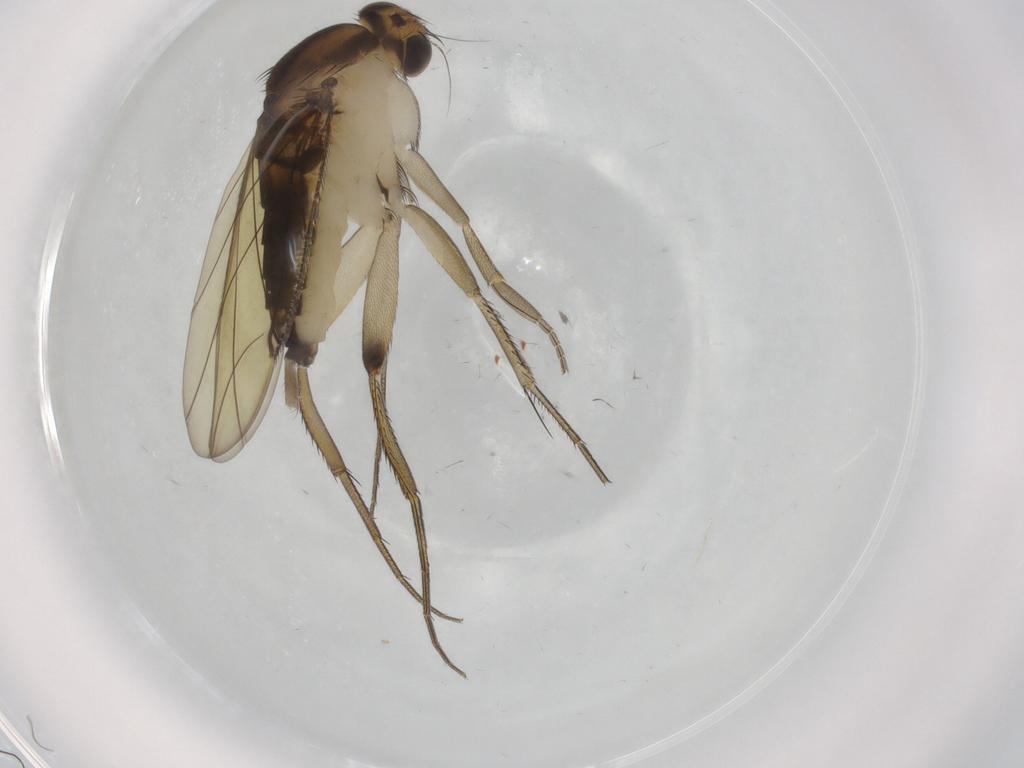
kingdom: Animalia
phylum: Arthropoda
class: Insecta
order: Diptera
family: Phoridae
